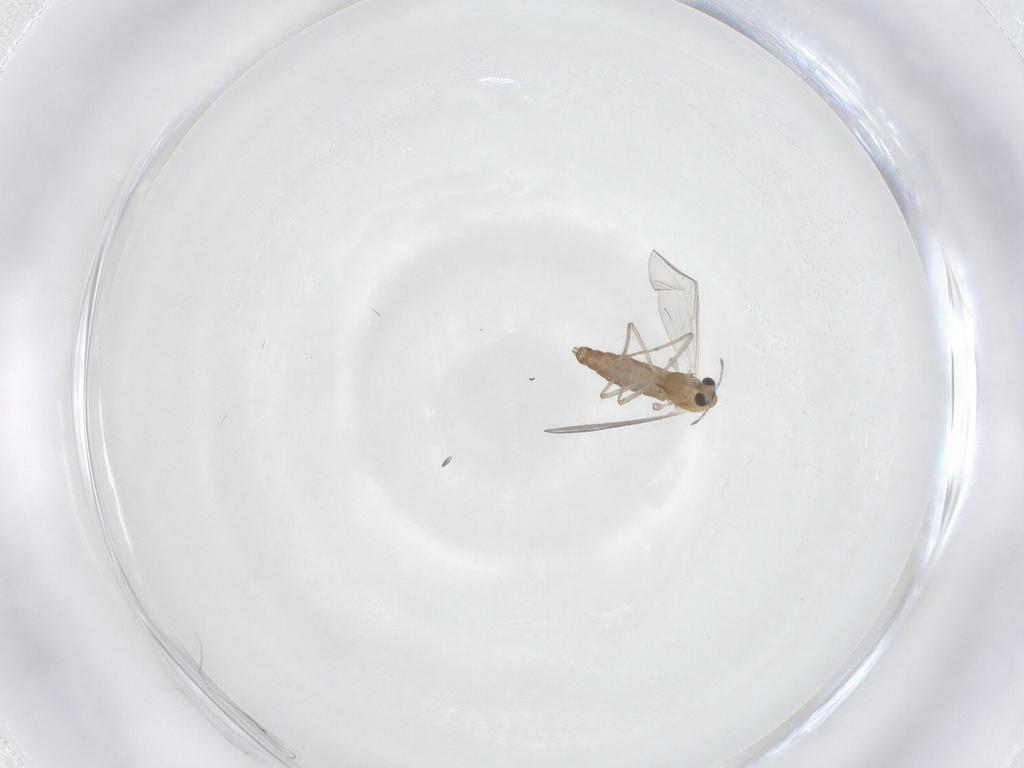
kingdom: Animalia
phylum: Arthropoda
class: Insecta
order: Diptera
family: Chironomidae
